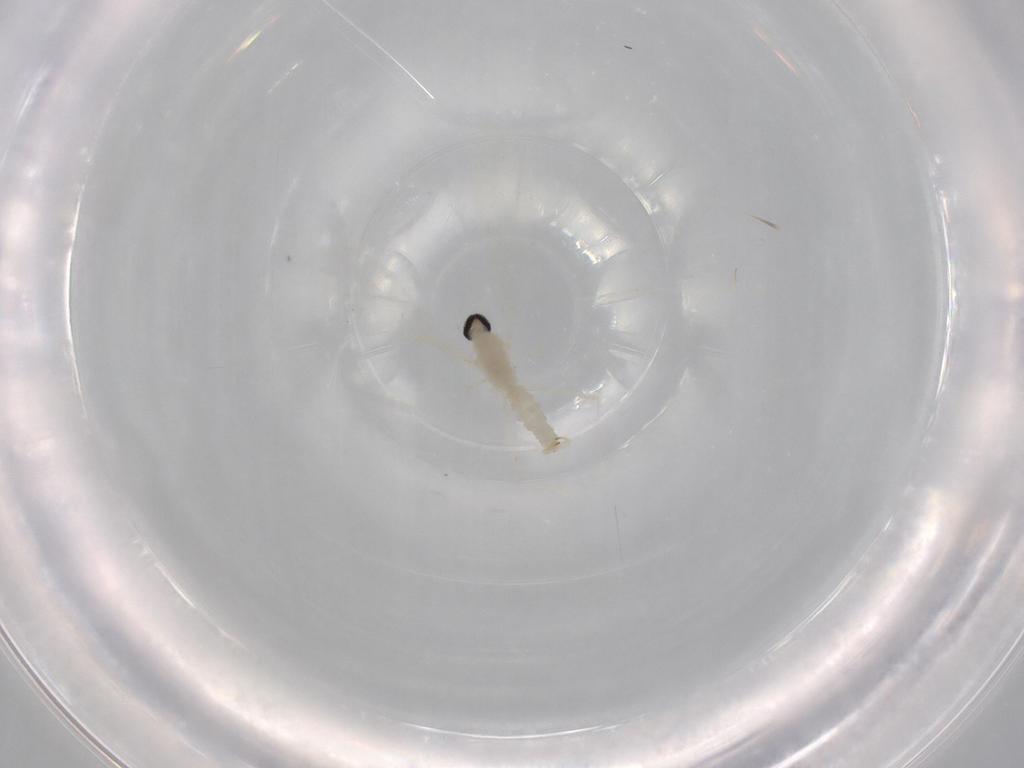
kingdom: Animalia
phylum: Arthropoda
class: Insecta
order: Diptera
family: Cecidomyiidae
